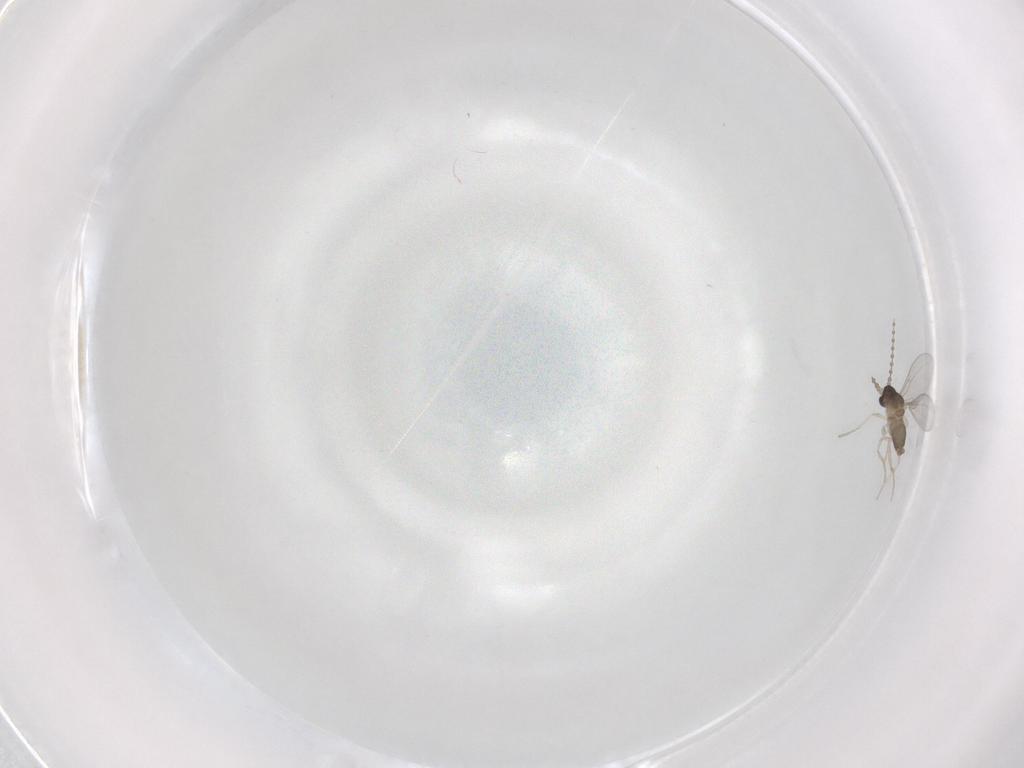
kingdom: Animalia
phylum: Arthropoda
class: Insecta
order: Diptera
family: Cecidomyiidae
